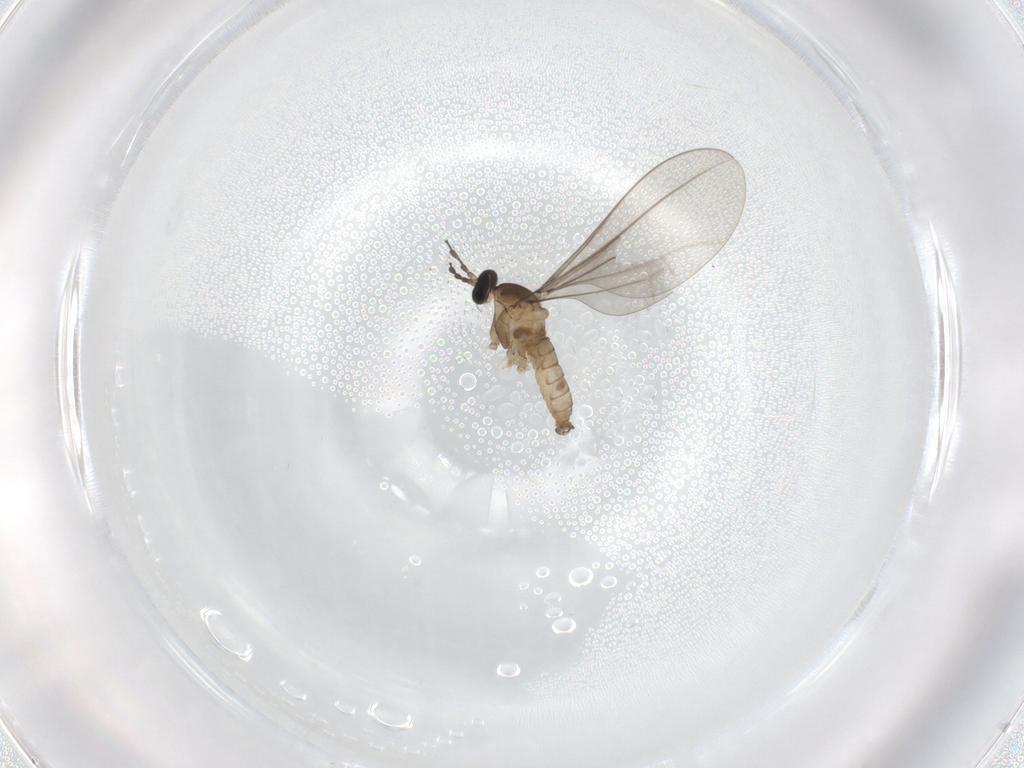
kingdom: Animalia
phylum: Arthropoda
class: Insecta
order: Diptera
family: Cecidomyiidae
